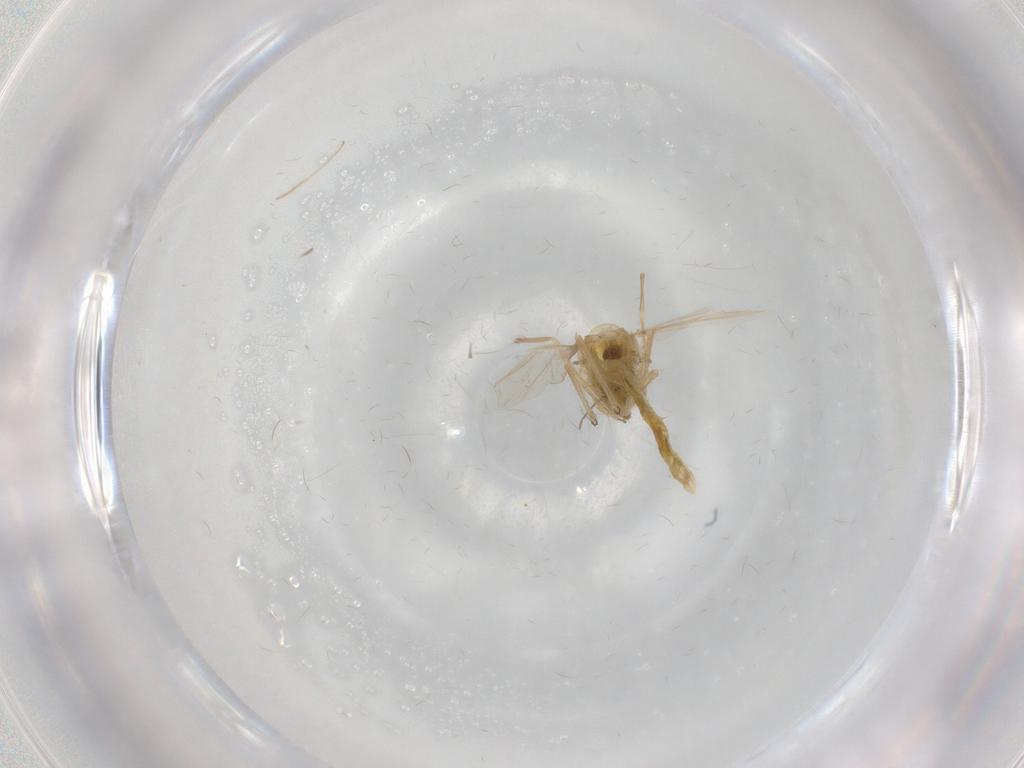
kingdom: Animalia
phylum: Arthropoda
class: Insecta
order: Diptera
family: Chironomidae
